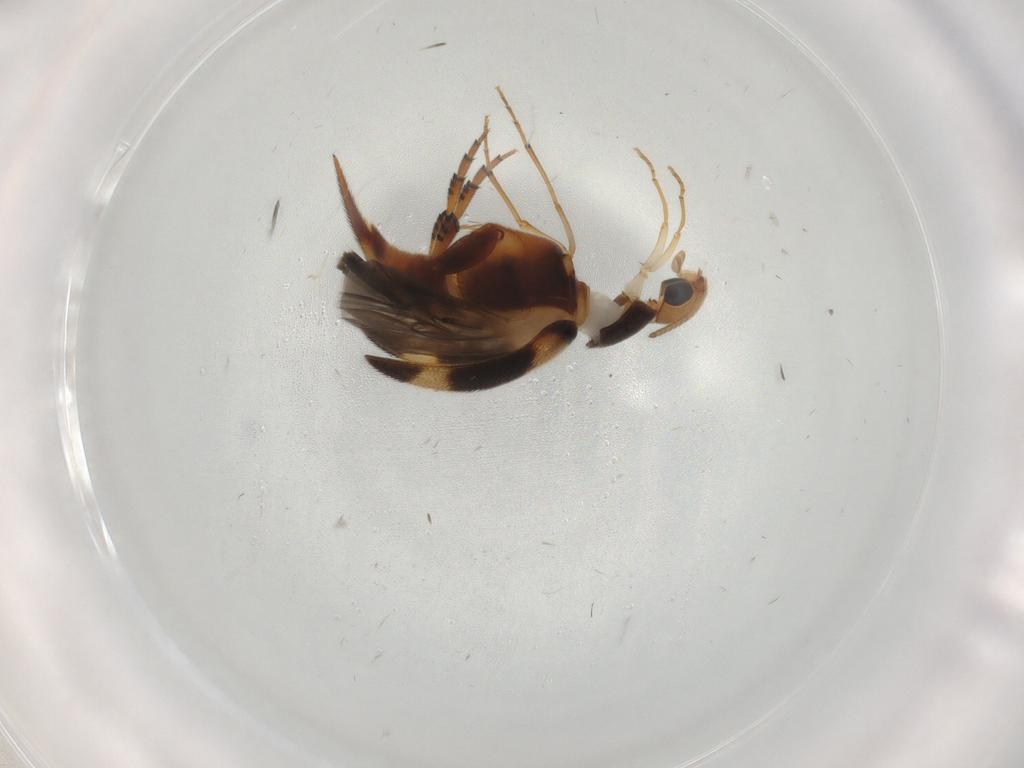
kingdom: Animalia
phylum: Arthropoda
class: Insecta
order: Coleoptera
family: Mordellidae
